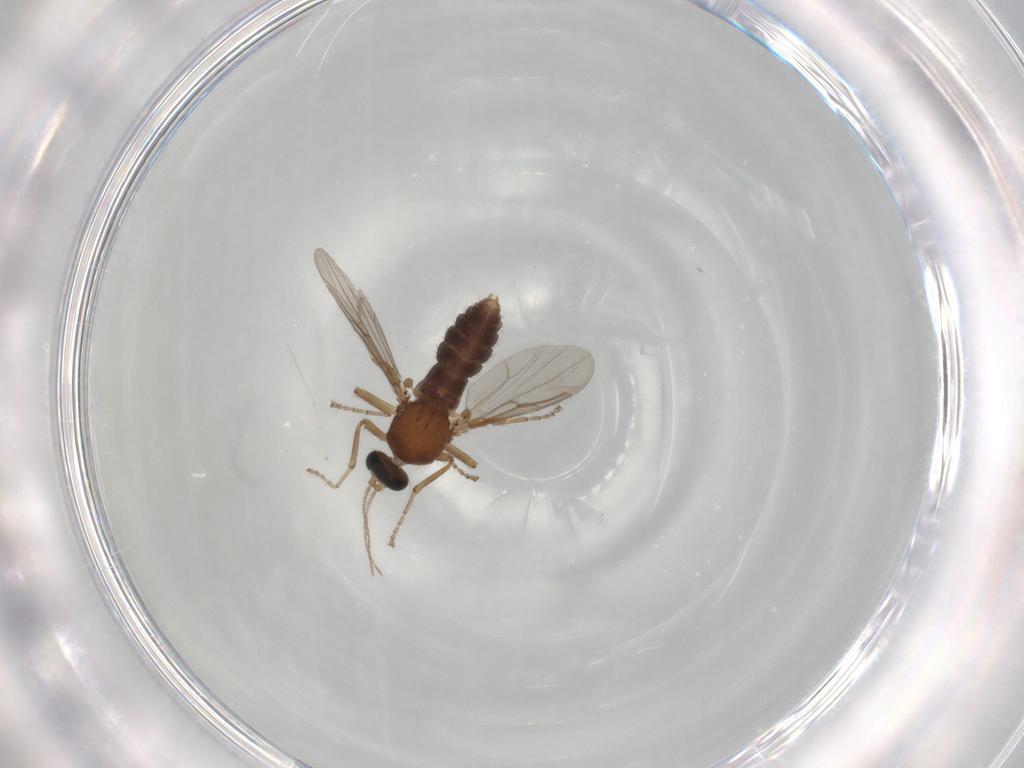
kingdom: Animalia
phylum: Arthropoda
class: Insecta
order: Diptera
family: Ceratopogonidae
